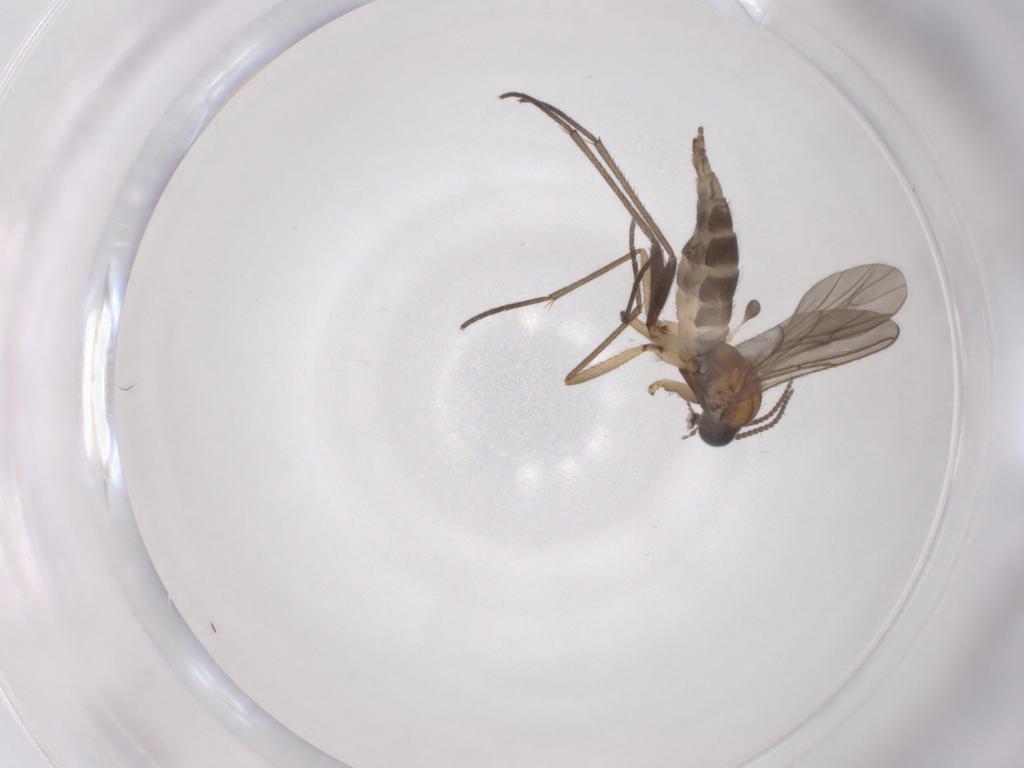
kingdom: Animalia
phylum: Arthropoda
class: Insecta
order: Diptera
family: Sciaridae
